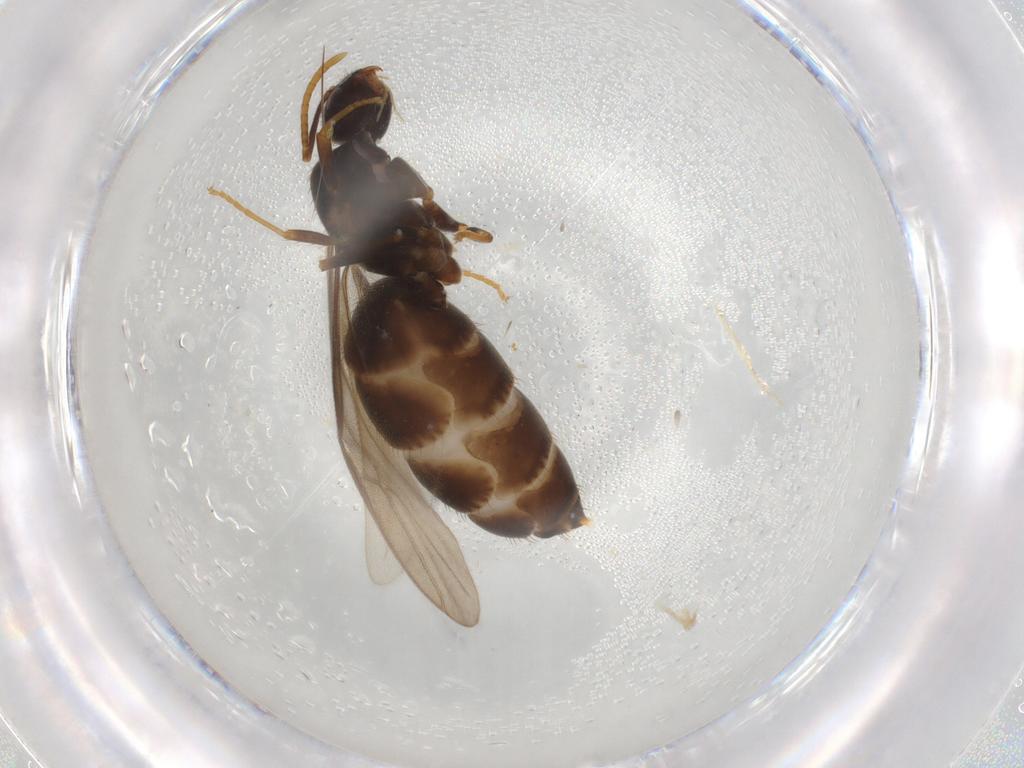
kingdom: Animalia
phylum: Arthropoda
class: Insecta
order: Hymenoptera
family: Formicidae
